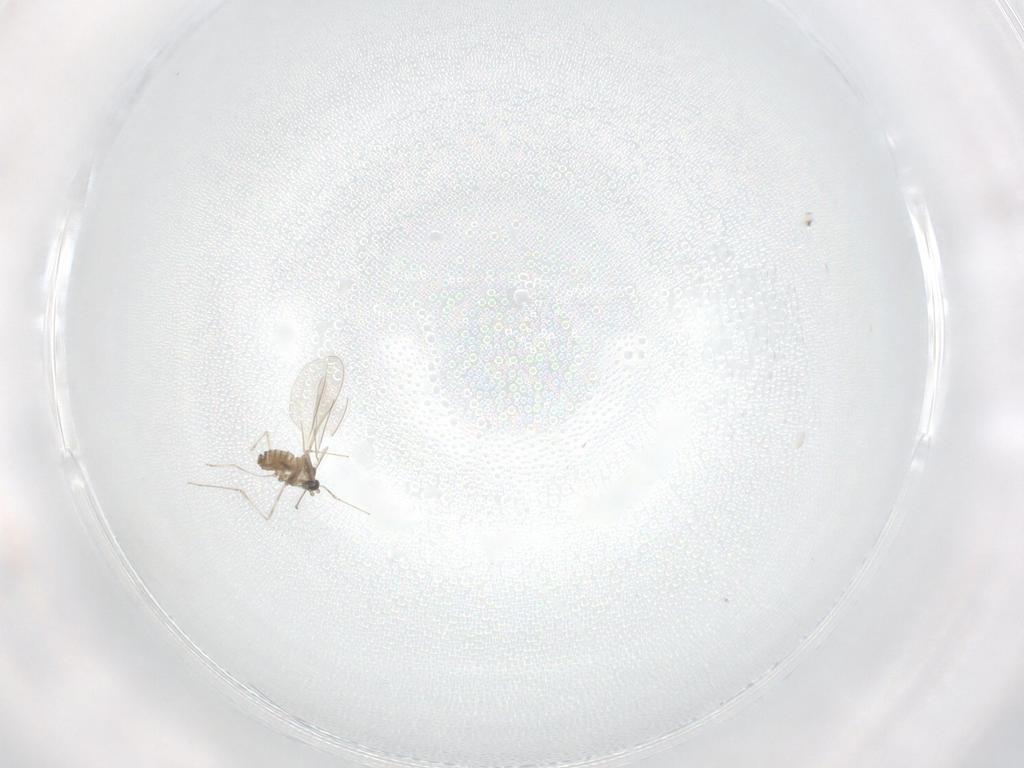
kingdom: Animalia
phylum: Arthropoda
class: Insecta
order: Diptera
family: Cecidomyiidae
